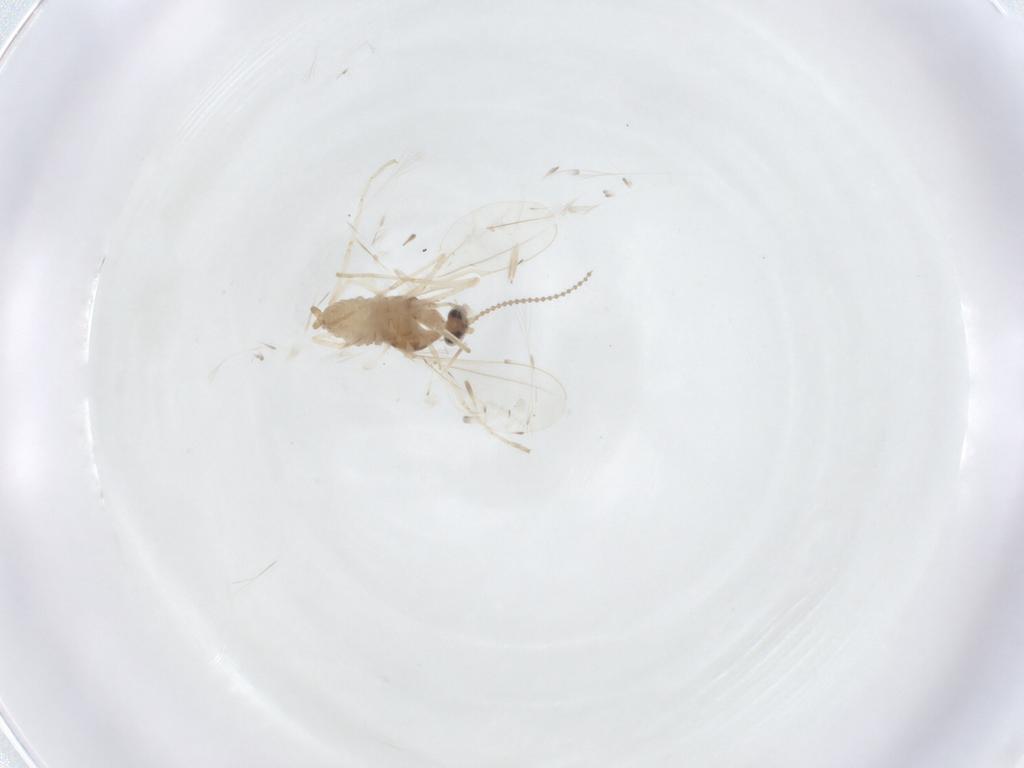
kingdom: Animalia
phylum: Arthropoda
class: Insecta
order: Diptera
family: Cecidomyiidae
